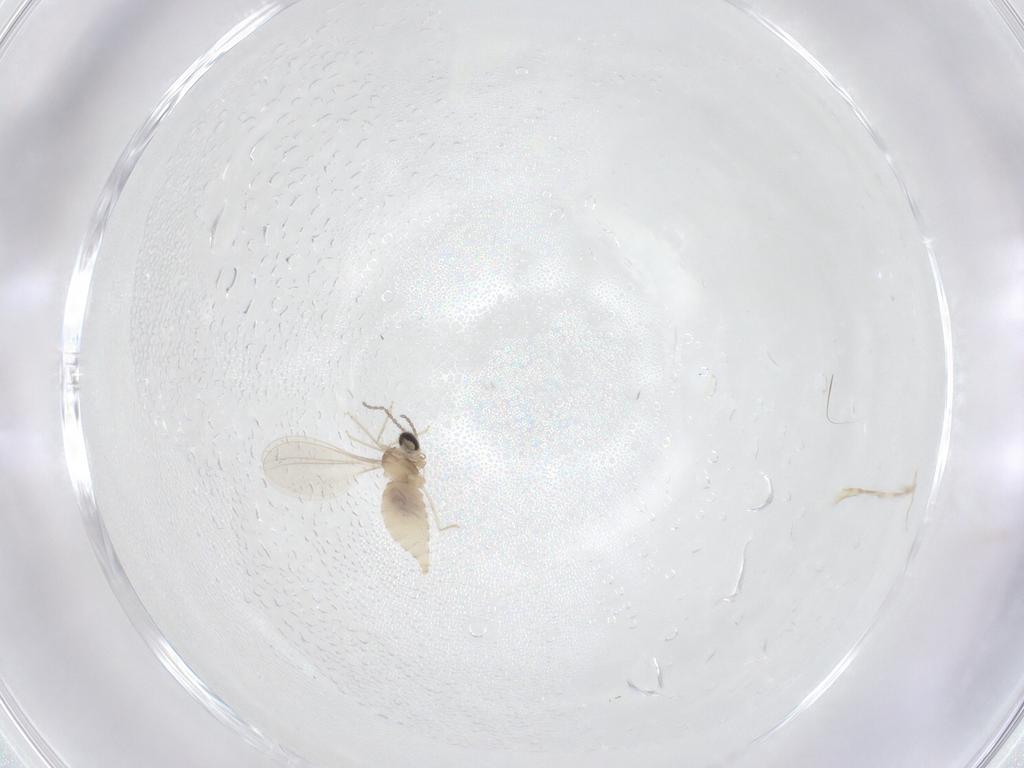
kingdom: Animalia
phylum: Arthropoda
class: Insecta
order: Diptera
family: Cecidomyiidae
